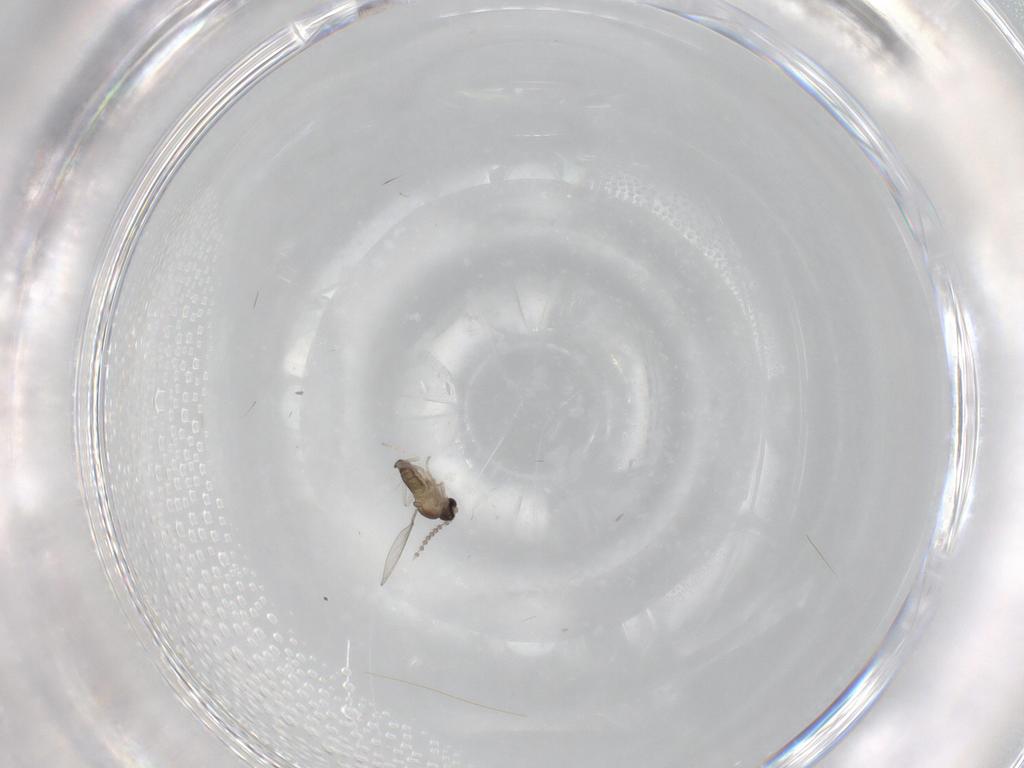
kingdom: Animalia
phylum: Arthropoda
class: Insecta
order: Diptera
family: Cecidomyiidae
